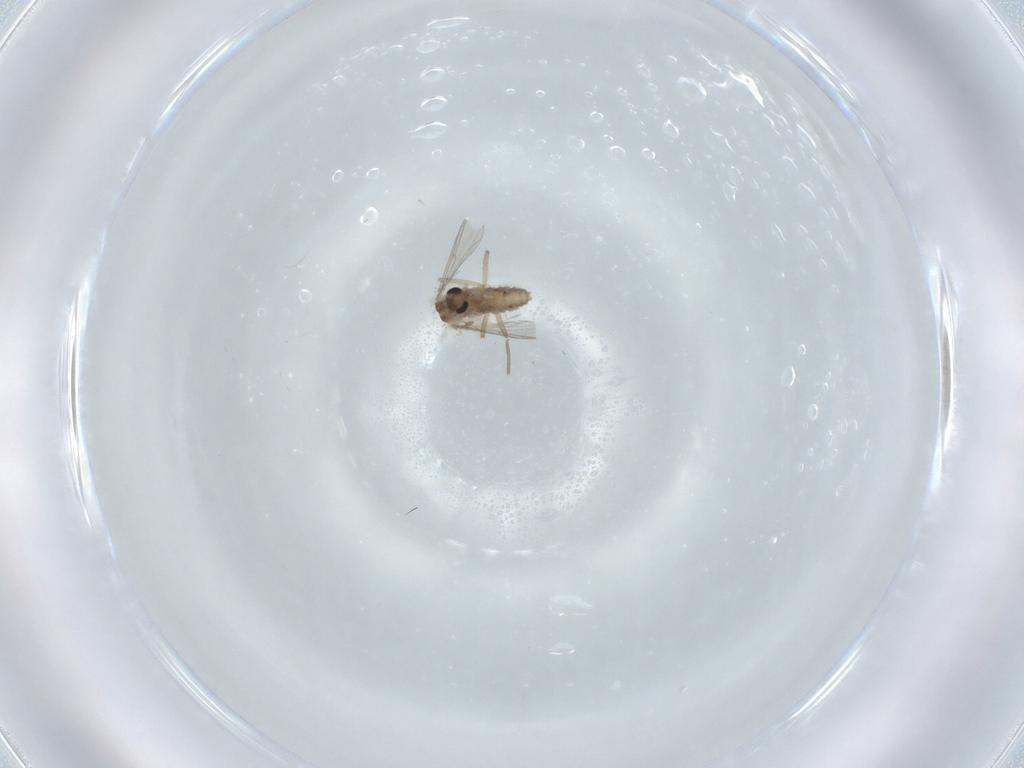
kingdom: Animalia
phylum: Arthropoda
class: Insecta
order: Diptera
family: Chironomidae
